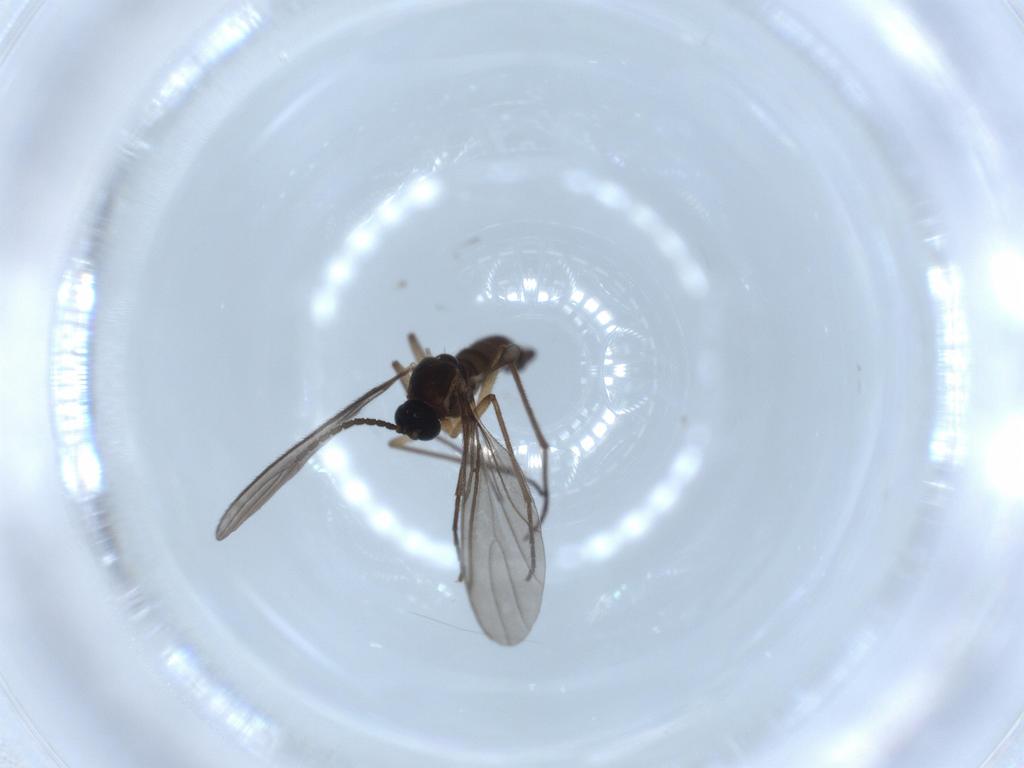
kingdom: Animalia
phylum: Arthropoda
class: Insecta
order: Diptera
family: Sciaridae
